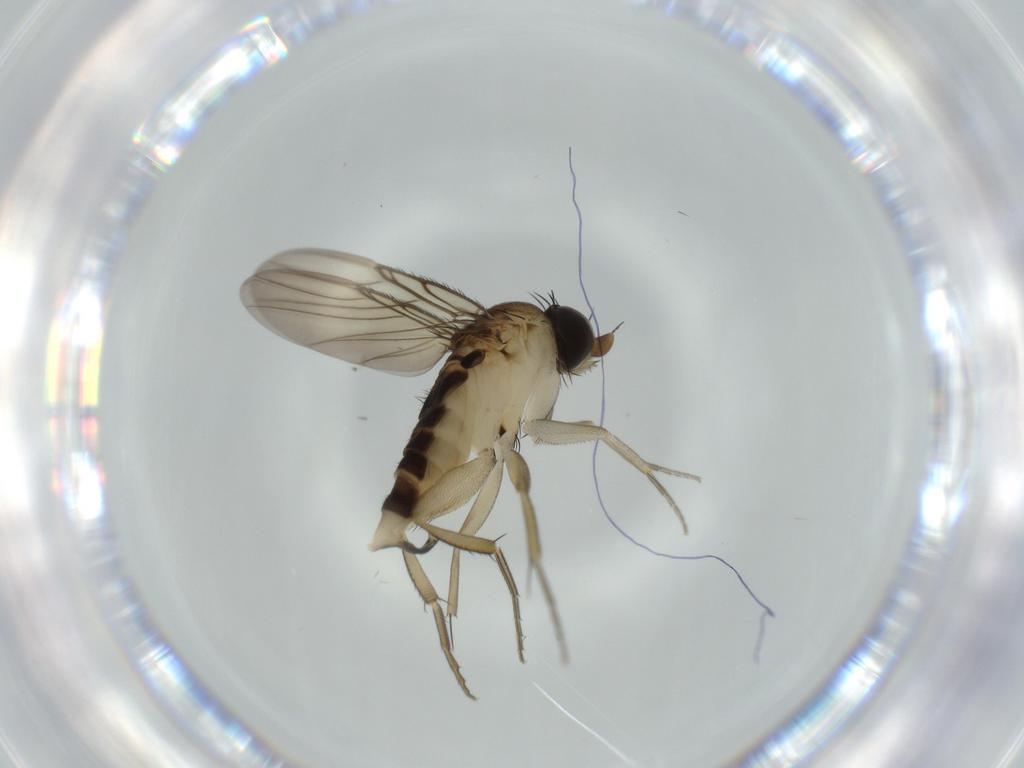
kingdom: Animalia
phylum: Arthropoda
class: Insecta
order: Diptera
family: Phoridae
